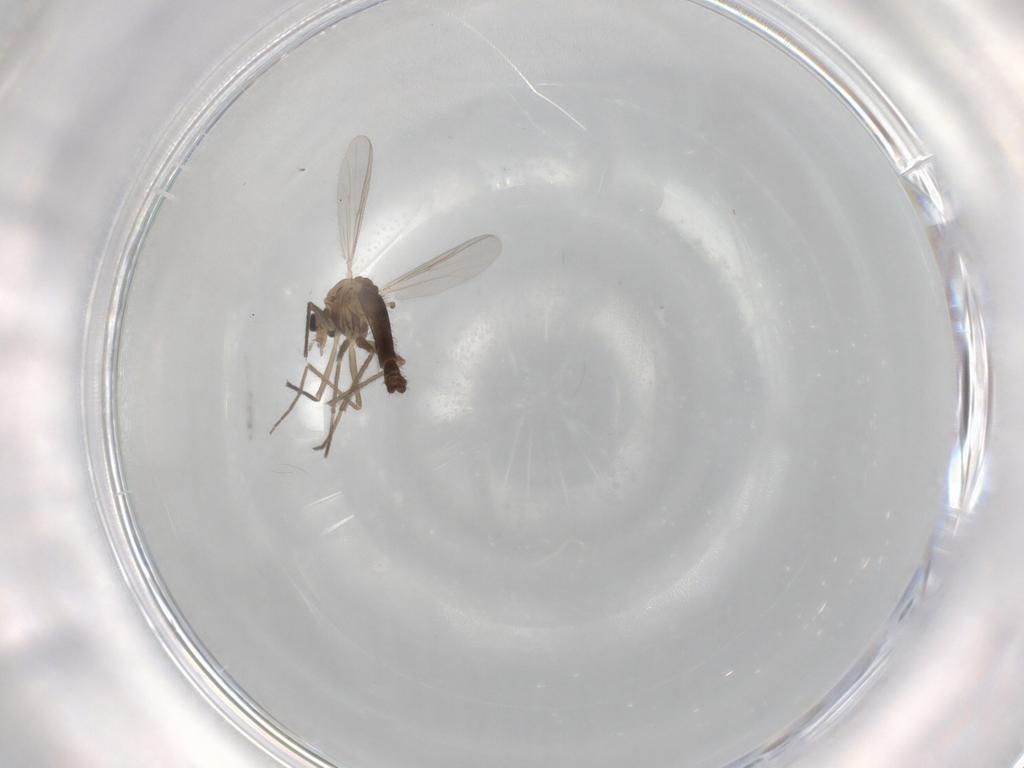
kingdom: Animalia
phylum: Arthropoda
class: Insecta
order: Diptera
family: Chironomidae
